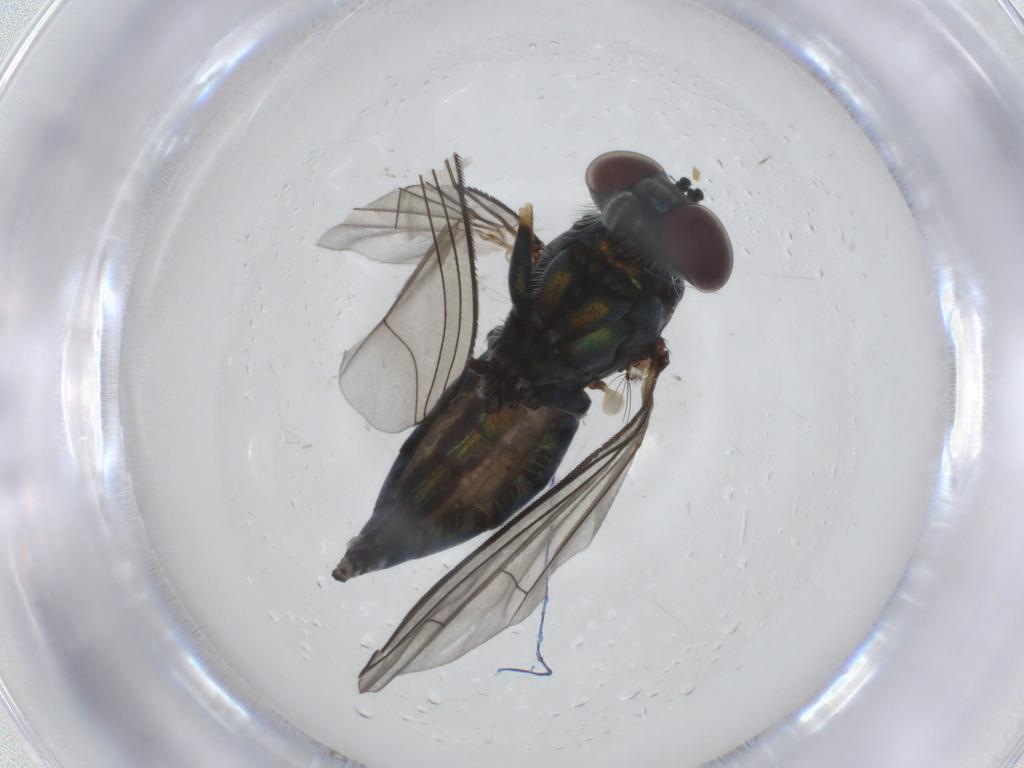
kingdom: Animalia
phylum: Arthropoda
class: Insecta
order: Diptera
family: Dolichopodidae
